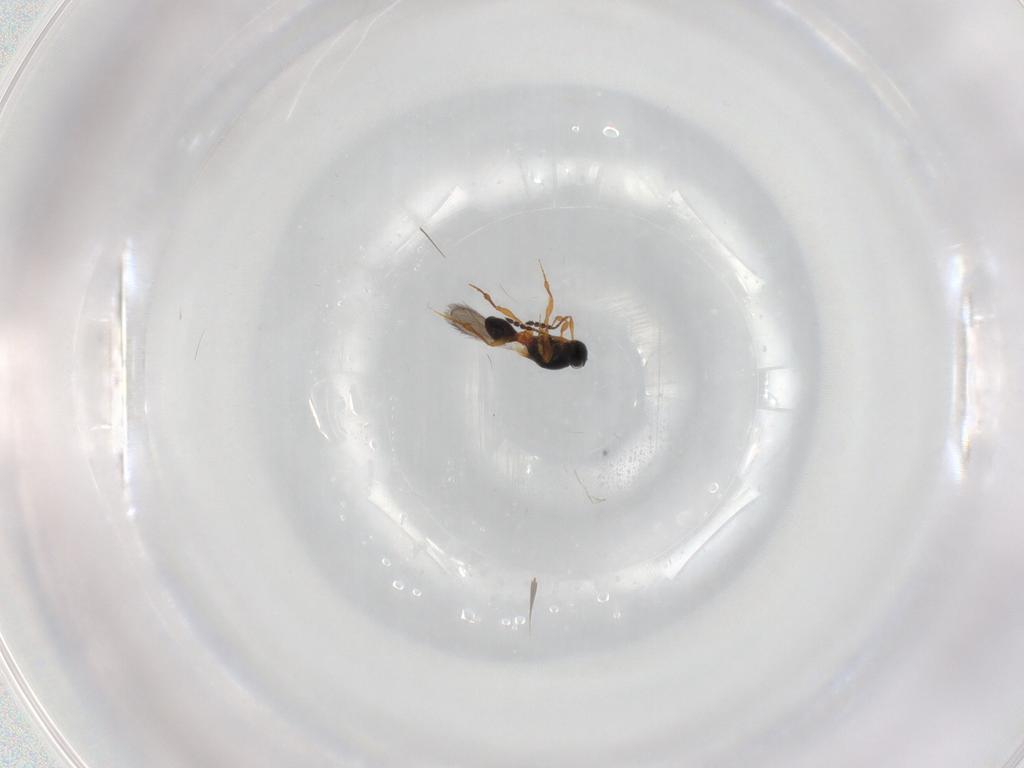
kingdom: Animalia
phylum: Arthropoda
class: Insecta
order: Hymenoptera
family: Platygastridae
